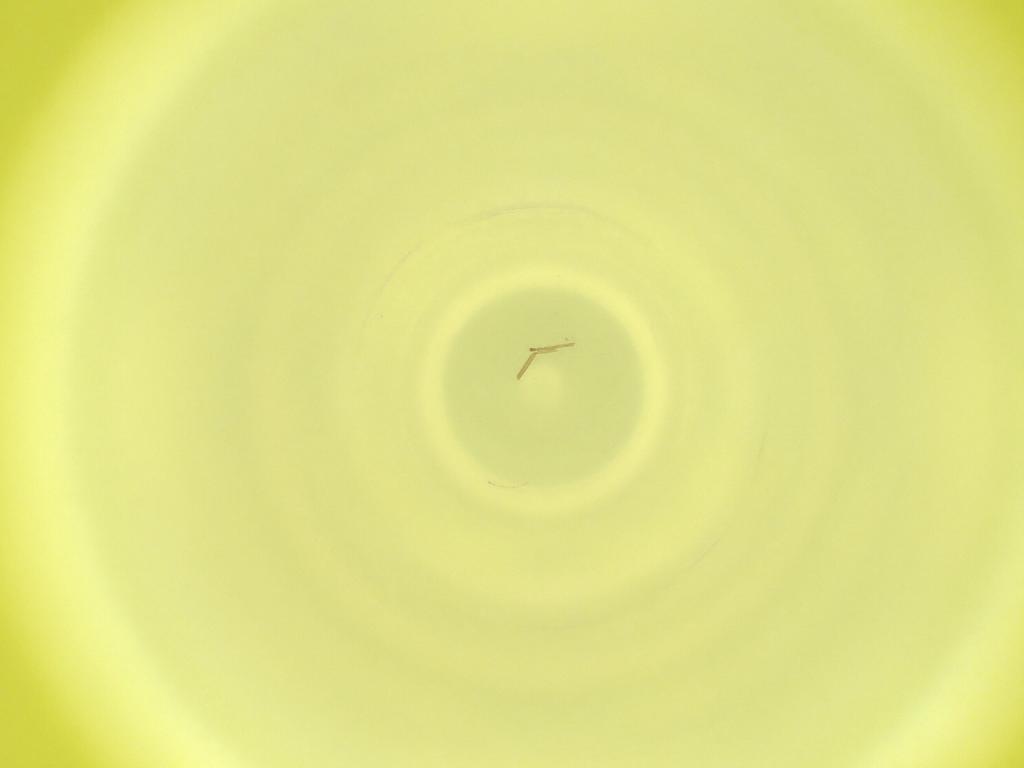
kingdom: Animalia
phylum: Arthropoda
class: Insecta
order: Diptera
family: Cecidomyiidae
